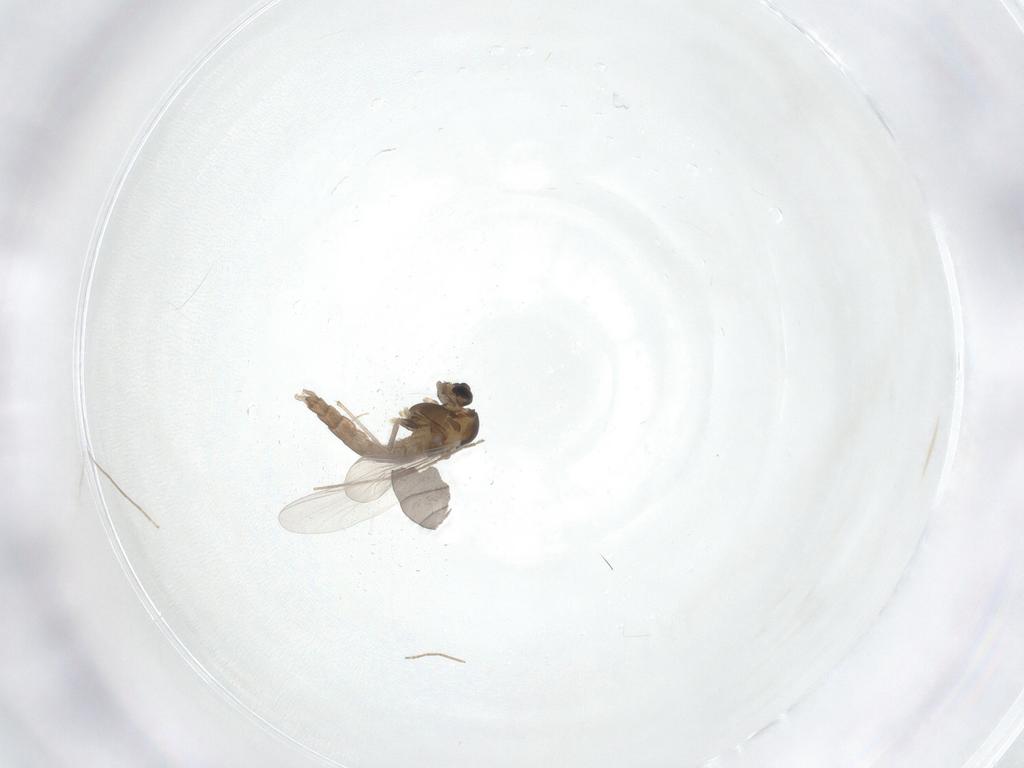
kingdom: Animalia
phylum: Arthropoda
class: Insecta
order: Diptera
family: Chironomidae
